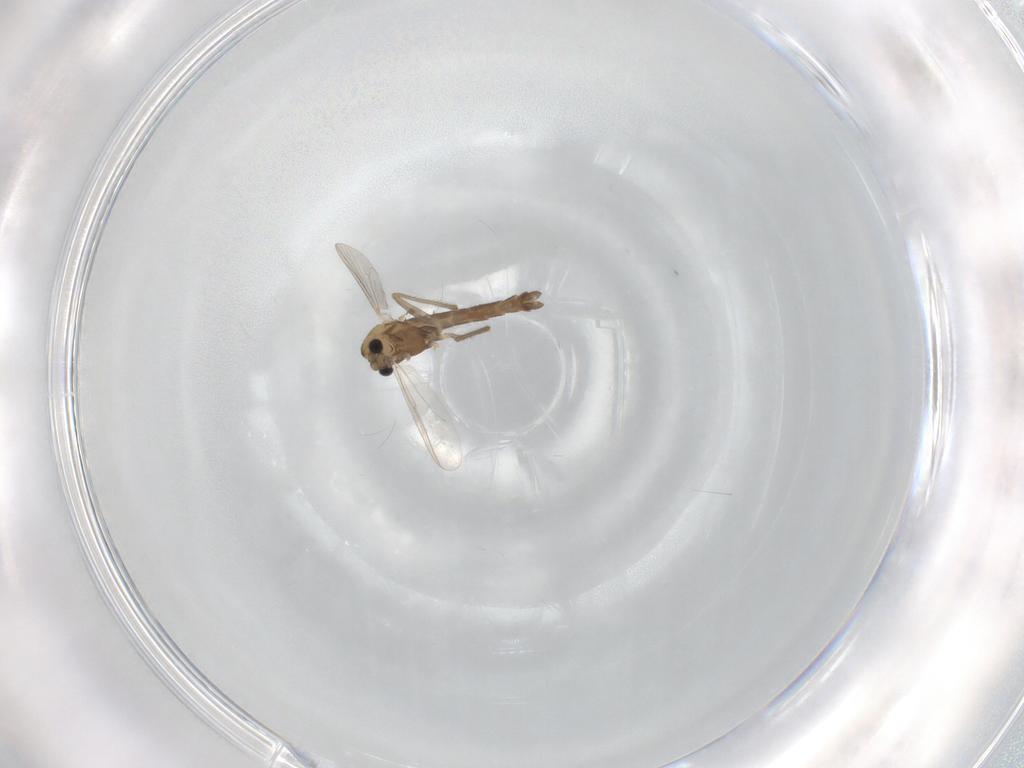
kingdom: Animalia
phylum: Arthropoda
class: Insecta
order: Diptera
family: Chironomidae
